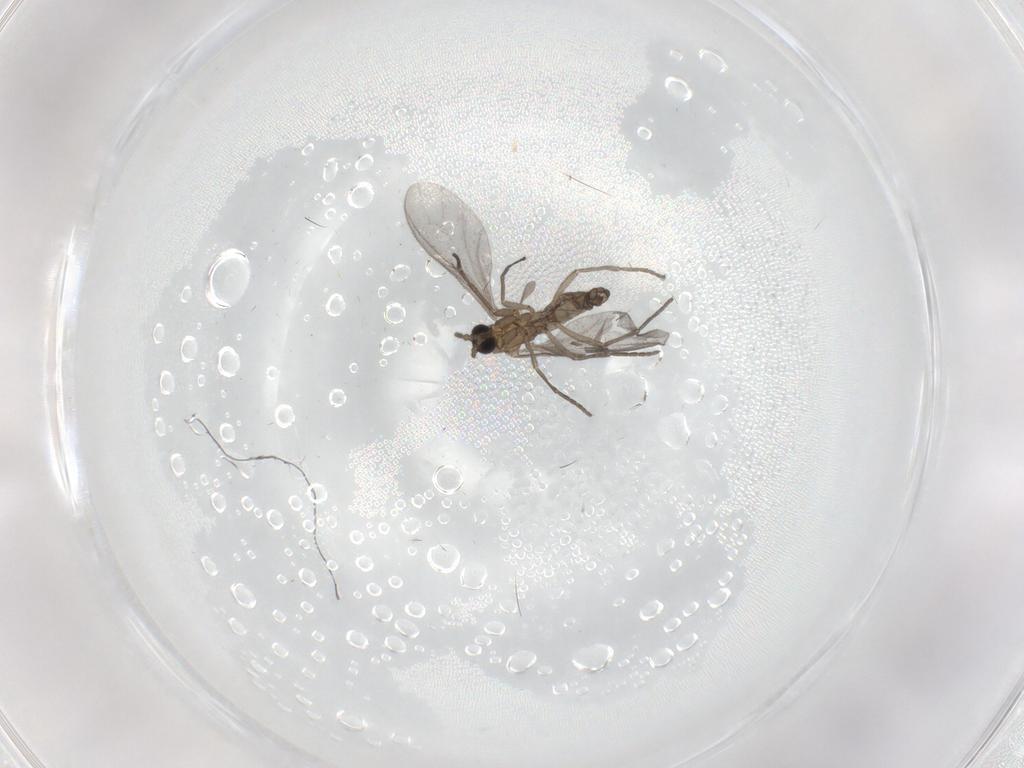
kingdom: Animalia
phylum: Arthropoda
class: Insecta
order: Diptera
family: Sciaridae
